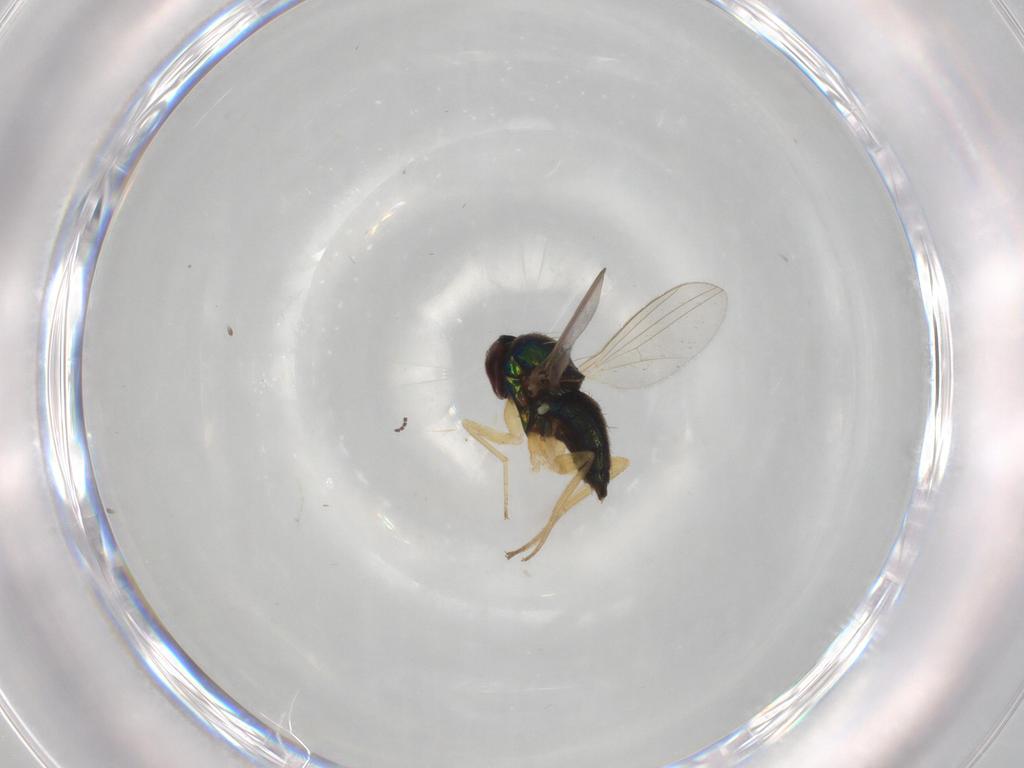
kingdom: Animalia
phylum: Arthropoda
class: Insecta
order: Diptera
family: Dolichopodidae
